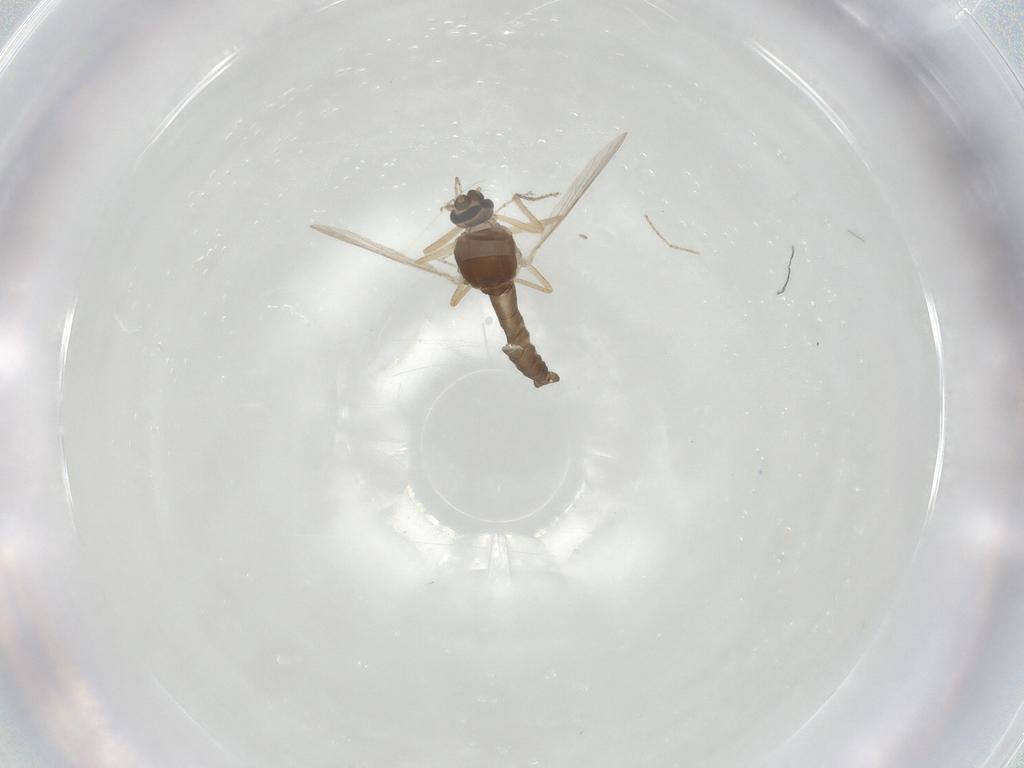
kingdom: Animalia
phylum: Arthropoda
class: Insecta
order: Diptera
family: Ceratopogonidae
